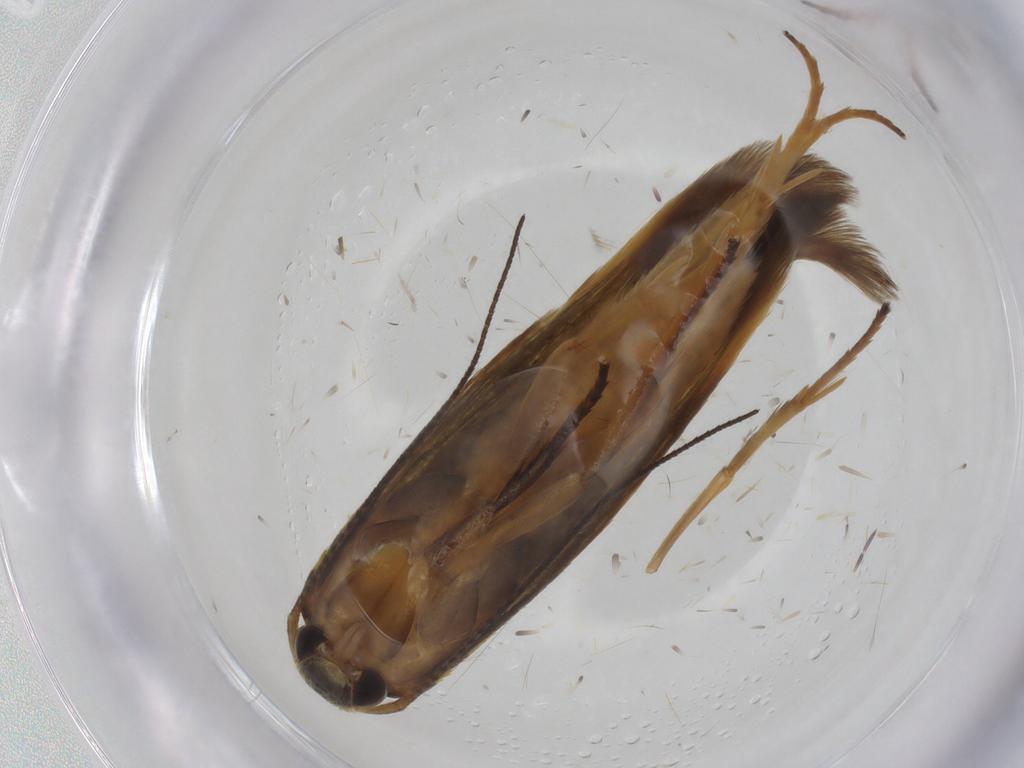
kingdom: Animalia
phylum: Arthropoda
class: Insecta
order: Lepidoptera
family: Stathmopodidae
